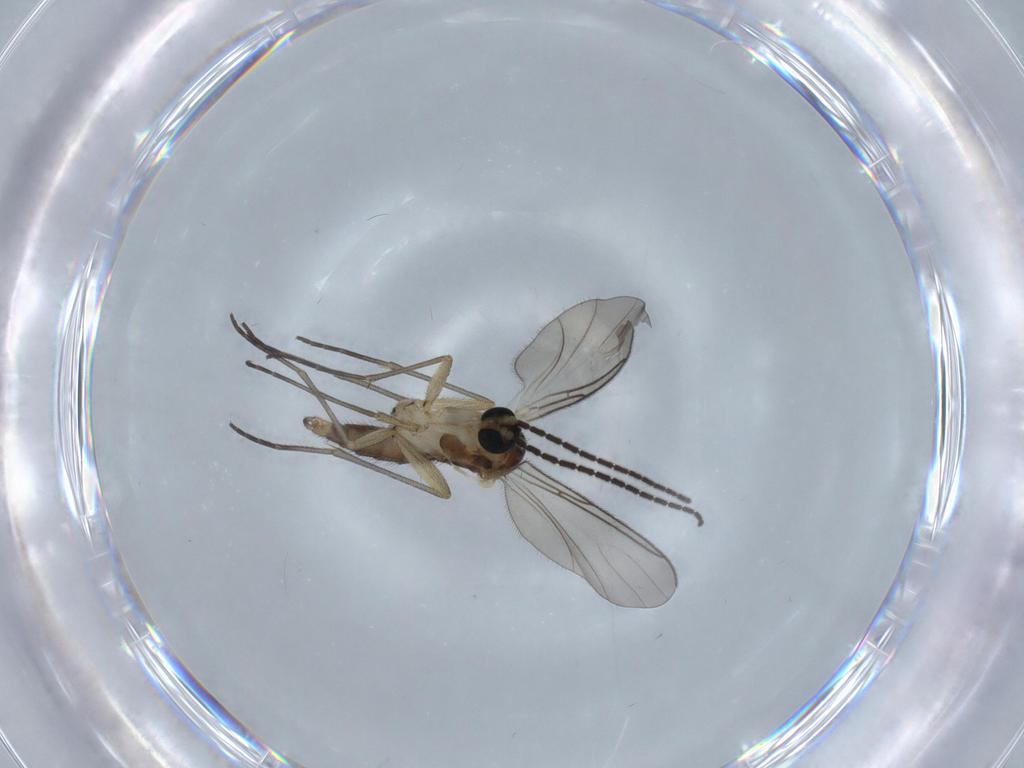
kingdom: Animalia
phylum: Arthropoda
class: Insecta
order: Diptera
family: Sciaridae
